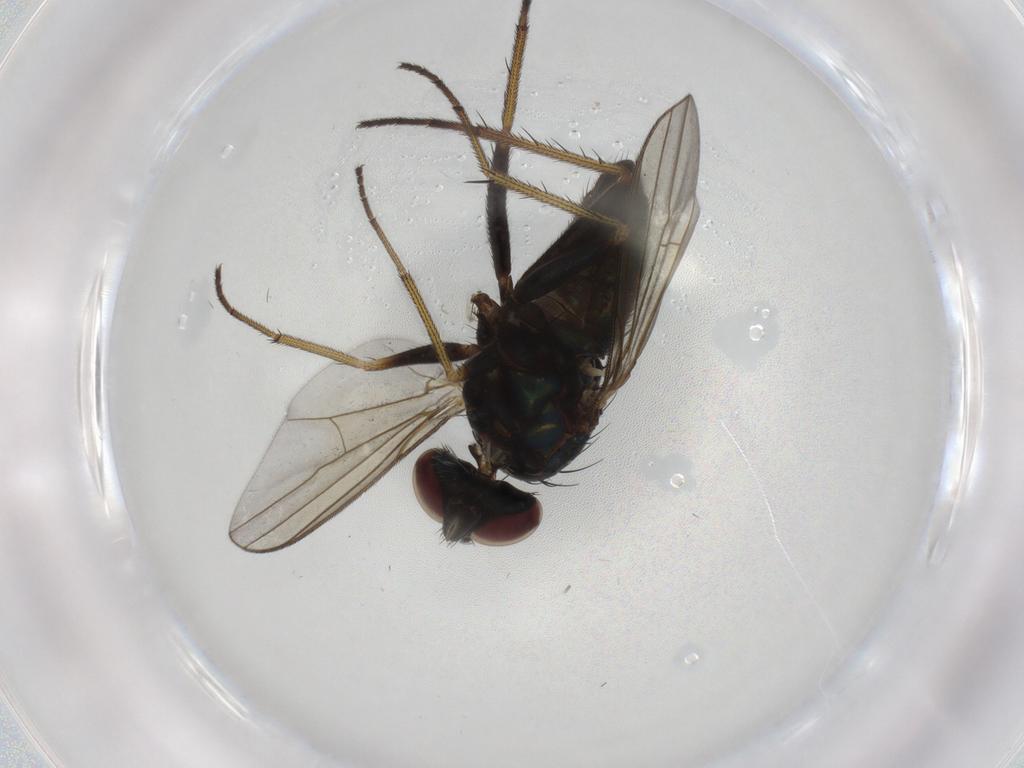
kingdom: Animalia
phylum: Arthropoda
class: Insecta
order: Diptera
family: Dolichopodidae
